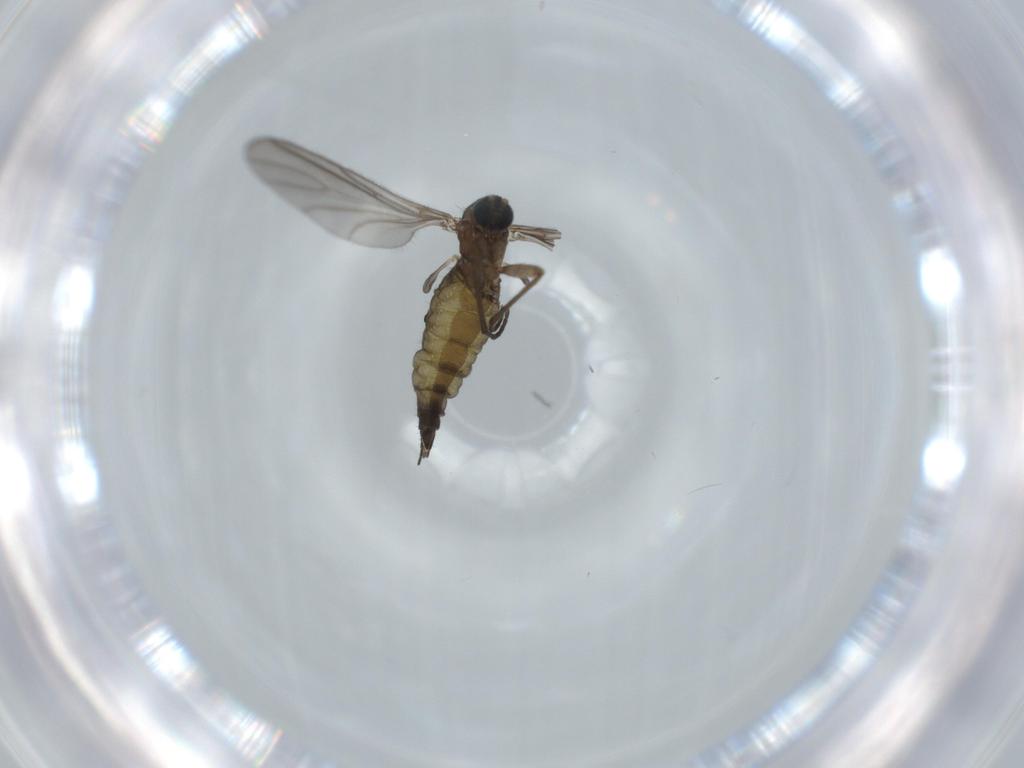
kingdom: Animalia
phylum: Arthropoda
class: Insecta
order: Diptera
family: Sciaridae
